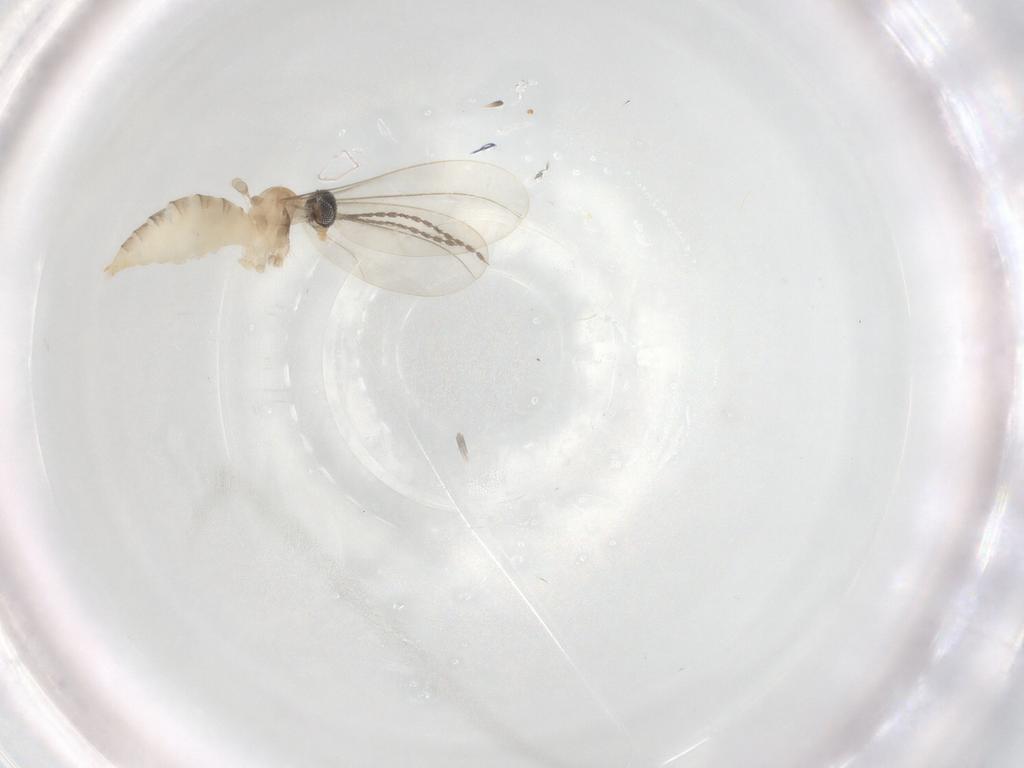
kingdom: Animalia
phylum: Arthropoda
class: Insecta
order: Diptera
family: Cecidomyiidae
